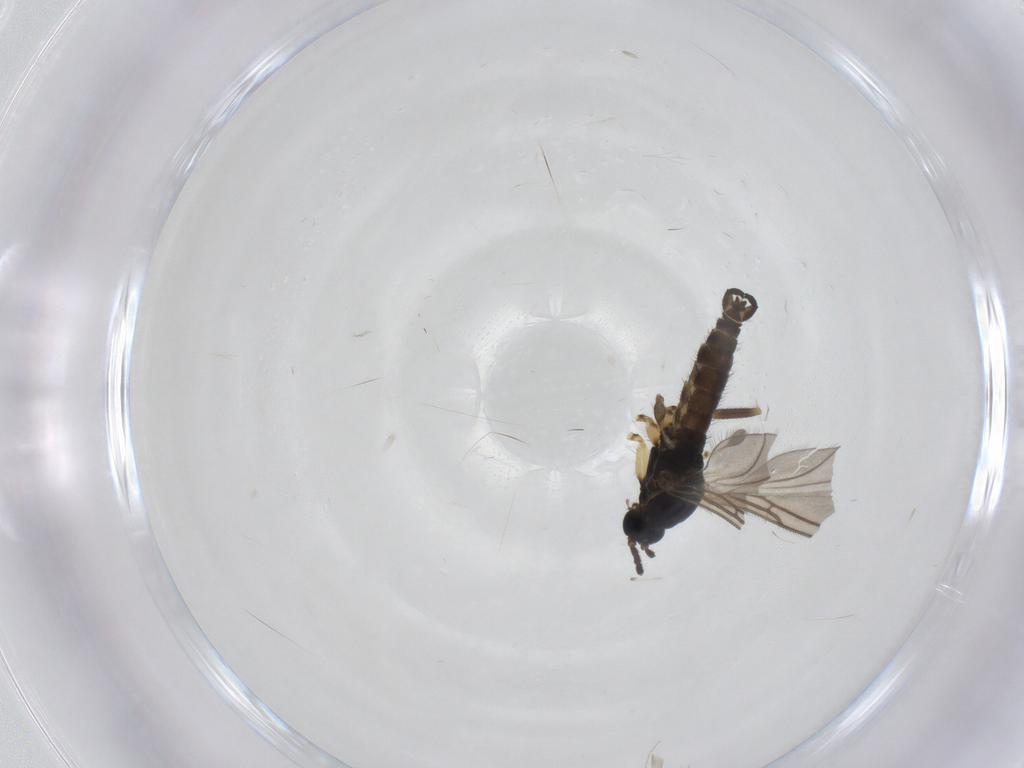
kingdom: Animalia
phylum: Arthropoda
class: Insecta
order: Diptera
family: Sciaridae
